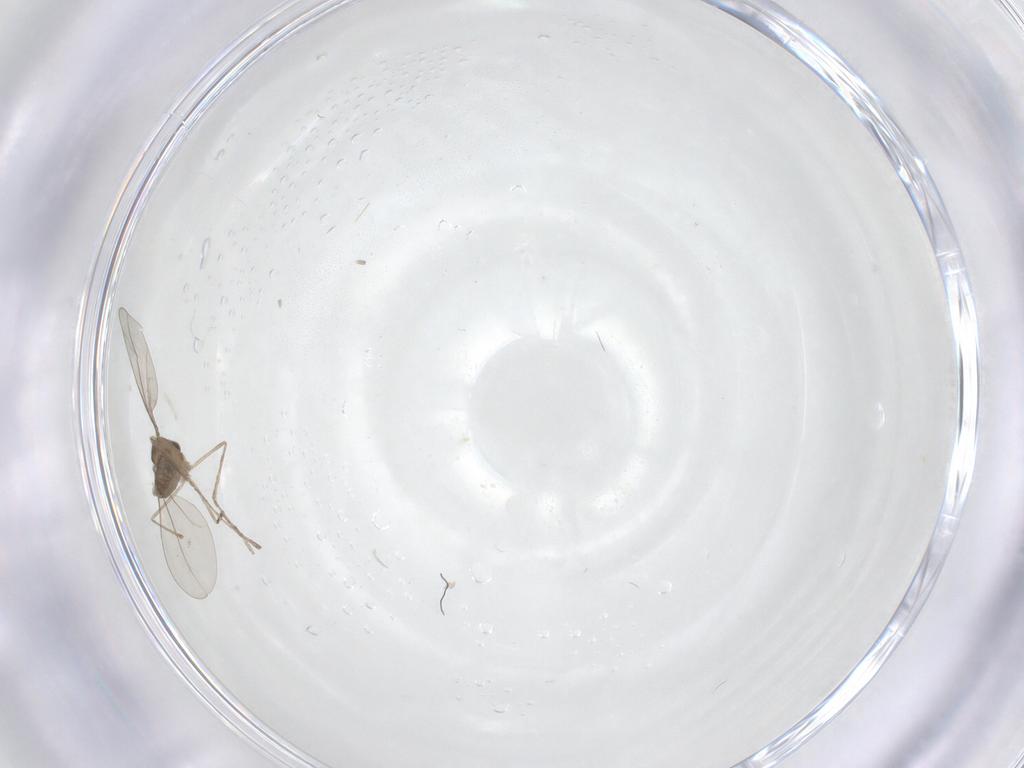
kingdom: Animalia
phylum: Arthropoda
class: Insecta
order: Diptera
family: Cecidomyiidae
